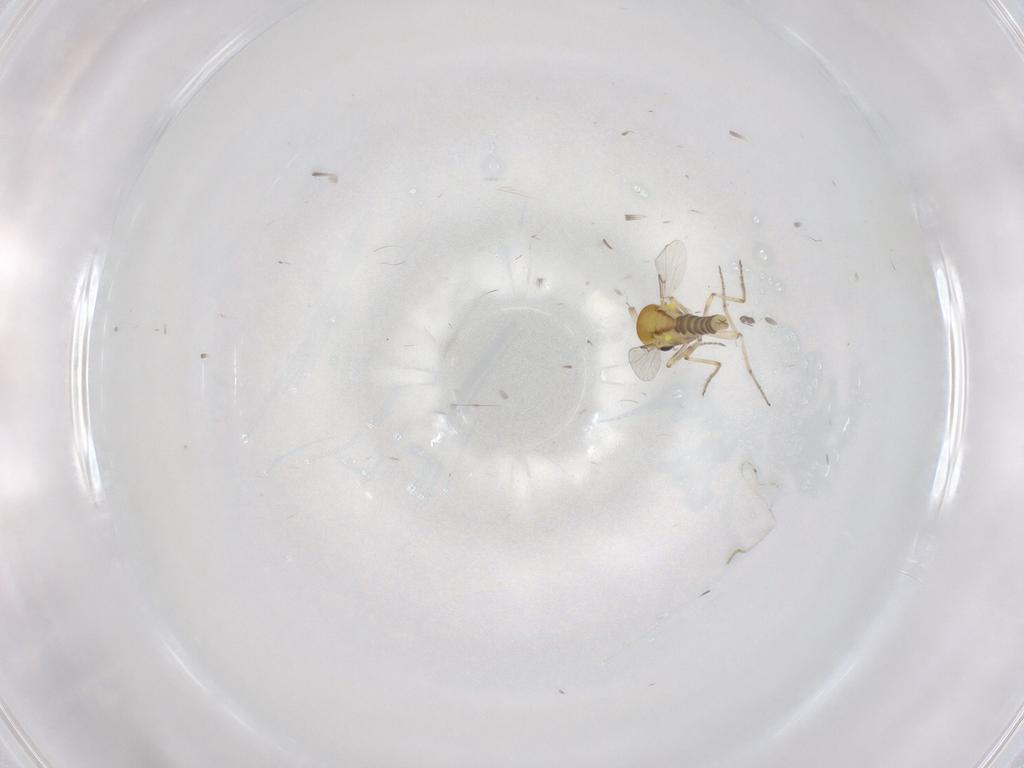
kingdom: Animalia
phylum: Arthropoda
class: Insecta
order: Diptera
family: Psychodidae
